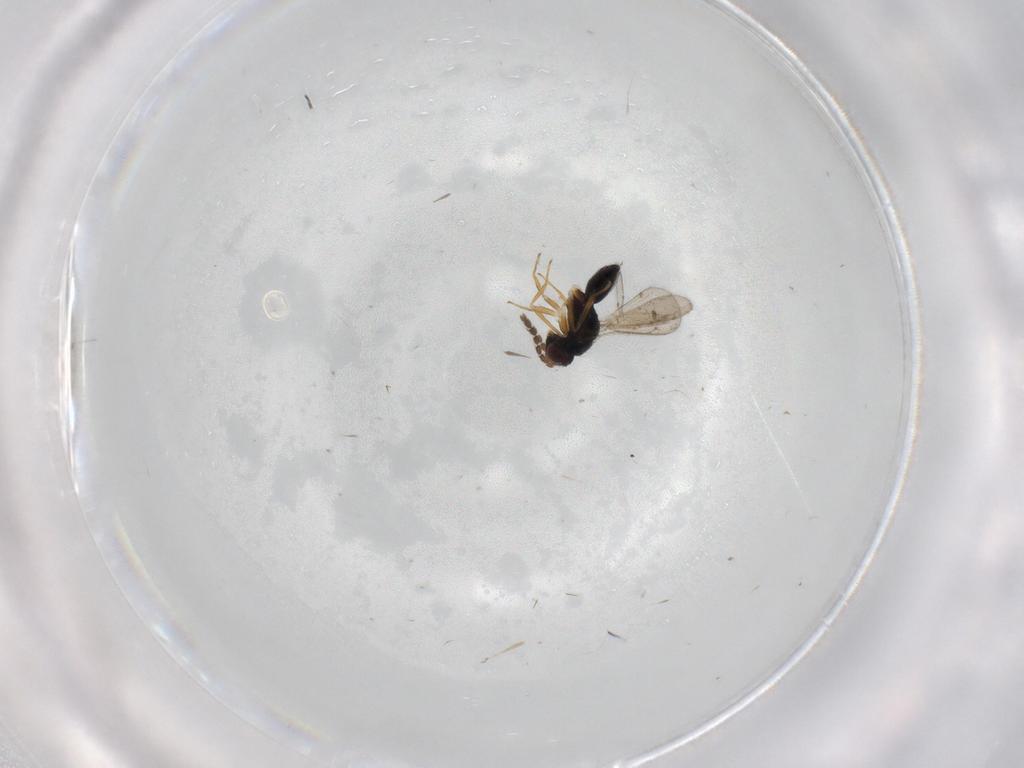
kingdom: Animalia
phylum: Arthropoda
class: Insecta
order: Hymenoptera
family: Eulophidae
